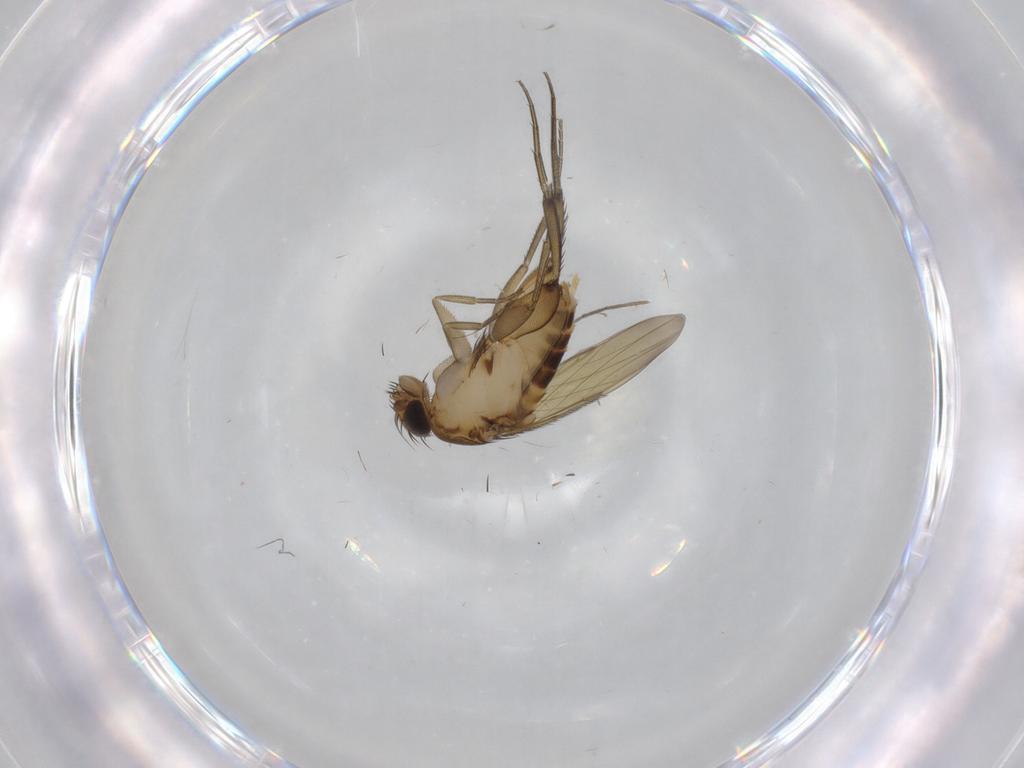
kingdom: Animalia
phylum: Arthropoda
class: Insecta
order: Diptera
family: Phoridae
